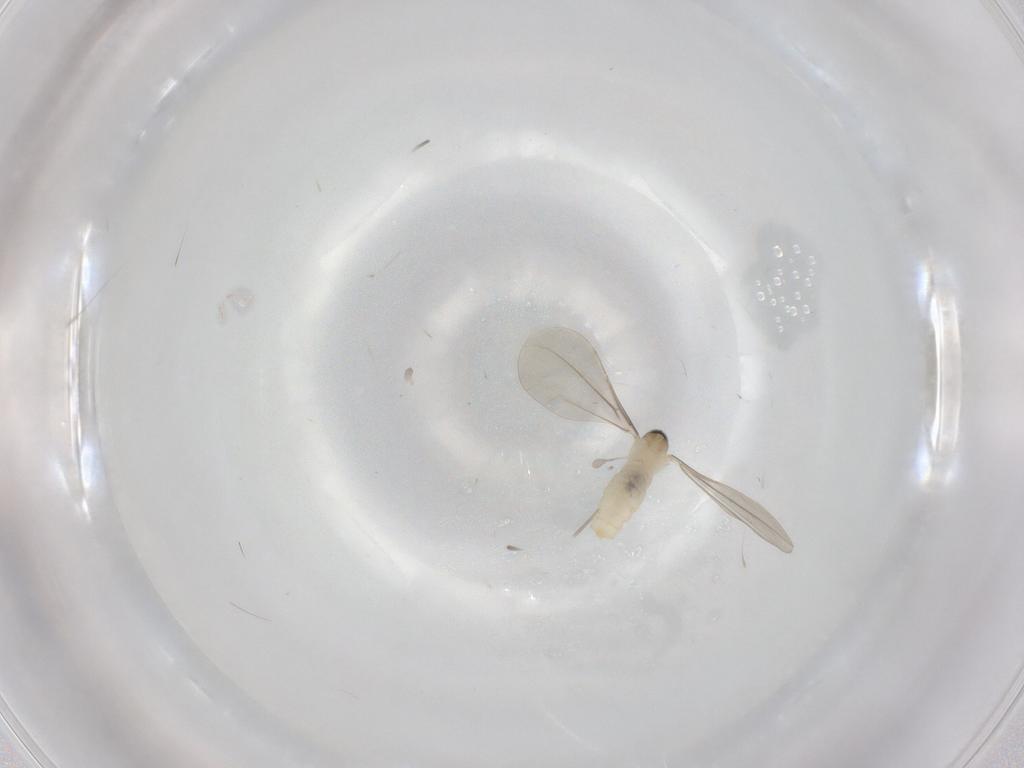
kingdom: Animalia
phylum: Arthropoda
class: Insecta
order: Diptera
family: Cecidomyiidae
